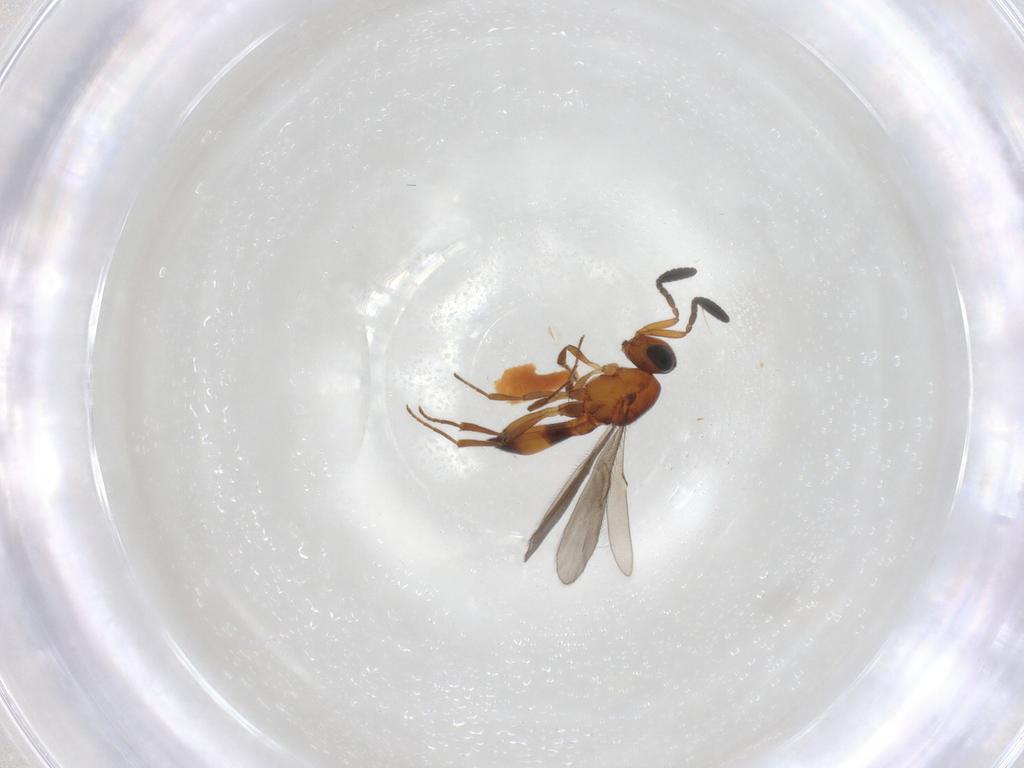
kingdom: Animalia
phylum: Arthropoda
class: Insecta
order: Hymenoptera
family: Scelionidae
